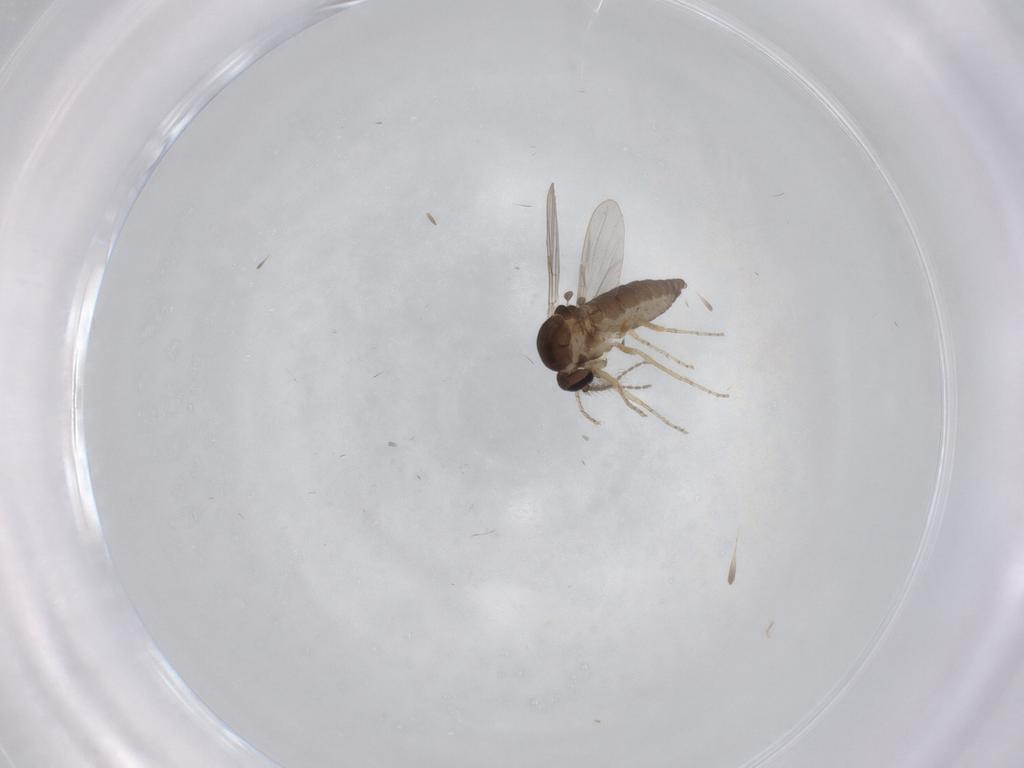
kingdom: Animalia
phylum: Arthropoda
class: Insecta
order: Diptera
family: Ceratopogonidae
